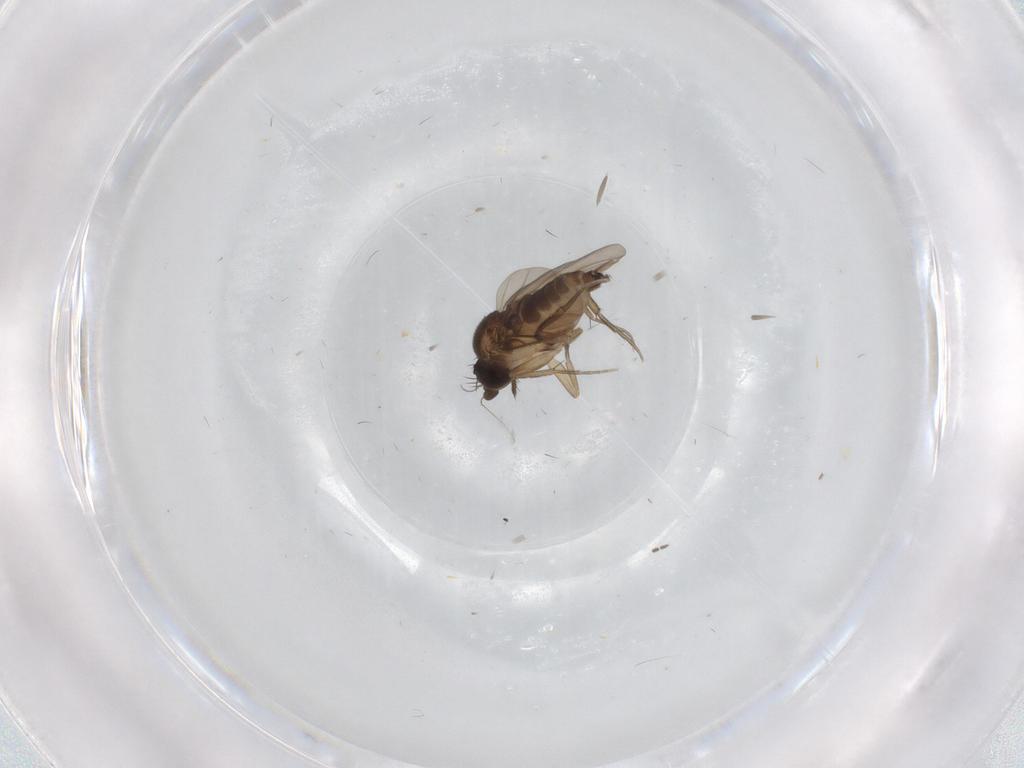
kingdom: Animalia
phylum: Arthropoda
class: Insecta
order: Diptera
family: Phoridae
